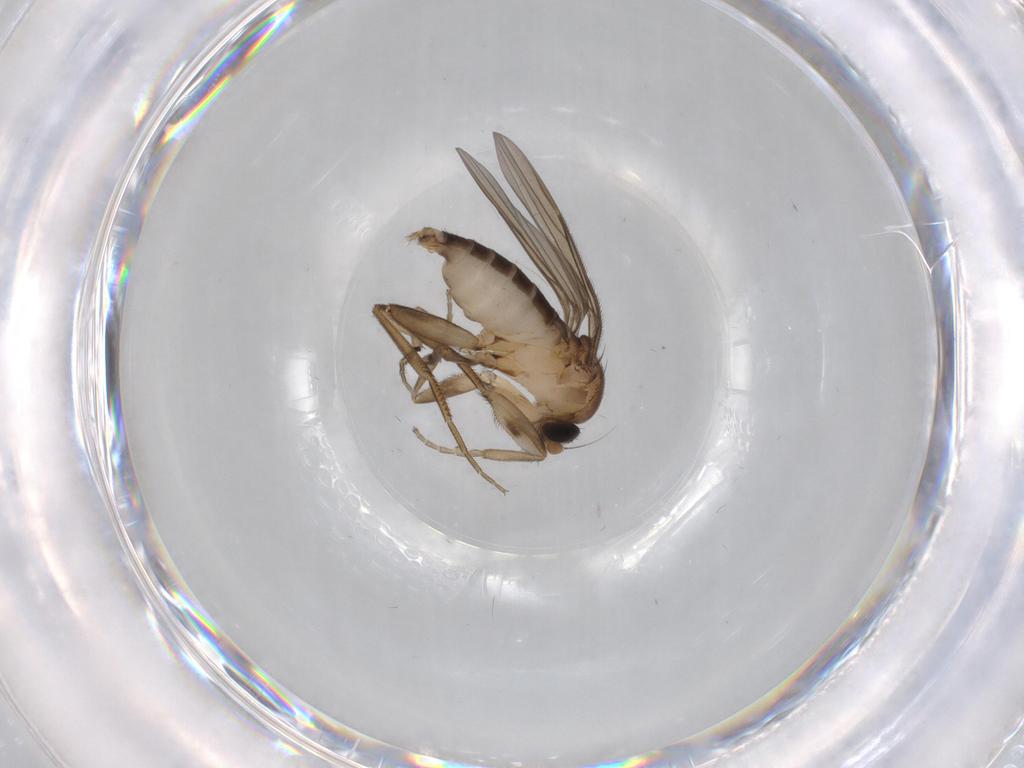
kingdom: Animalia
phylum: Arthropoda
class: Insecta
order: Diptera
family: Phoridae
